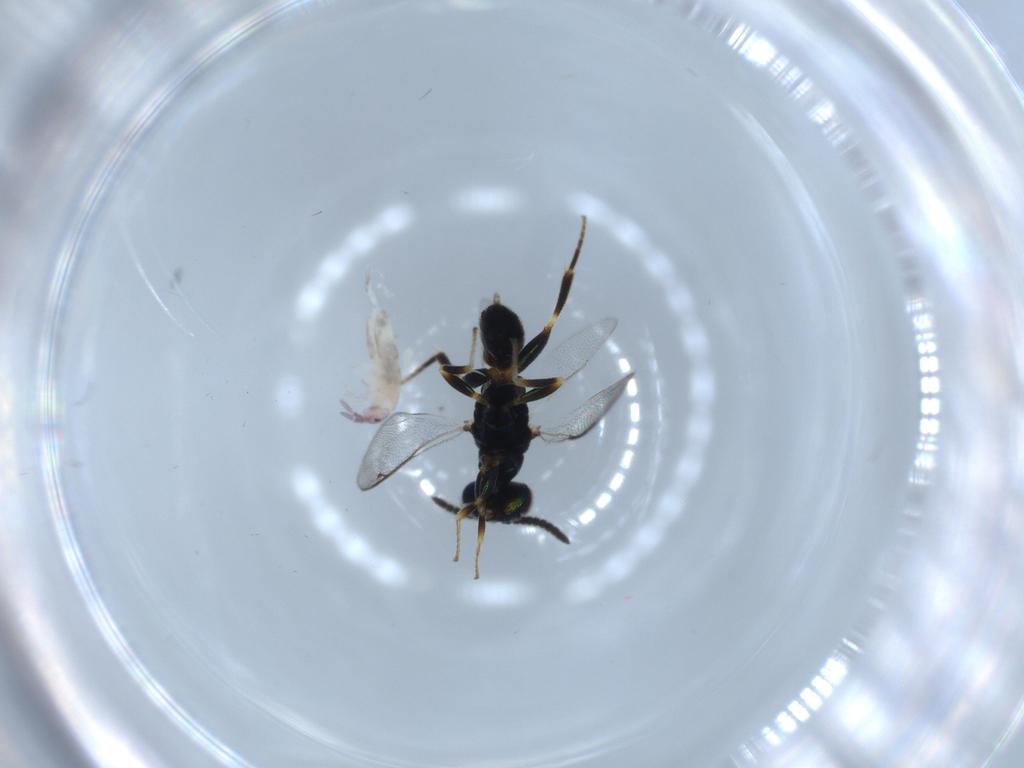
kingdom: Animalia
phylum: Arthropoda
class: Insecta
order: Hymenoptera
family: Cleonyminae
